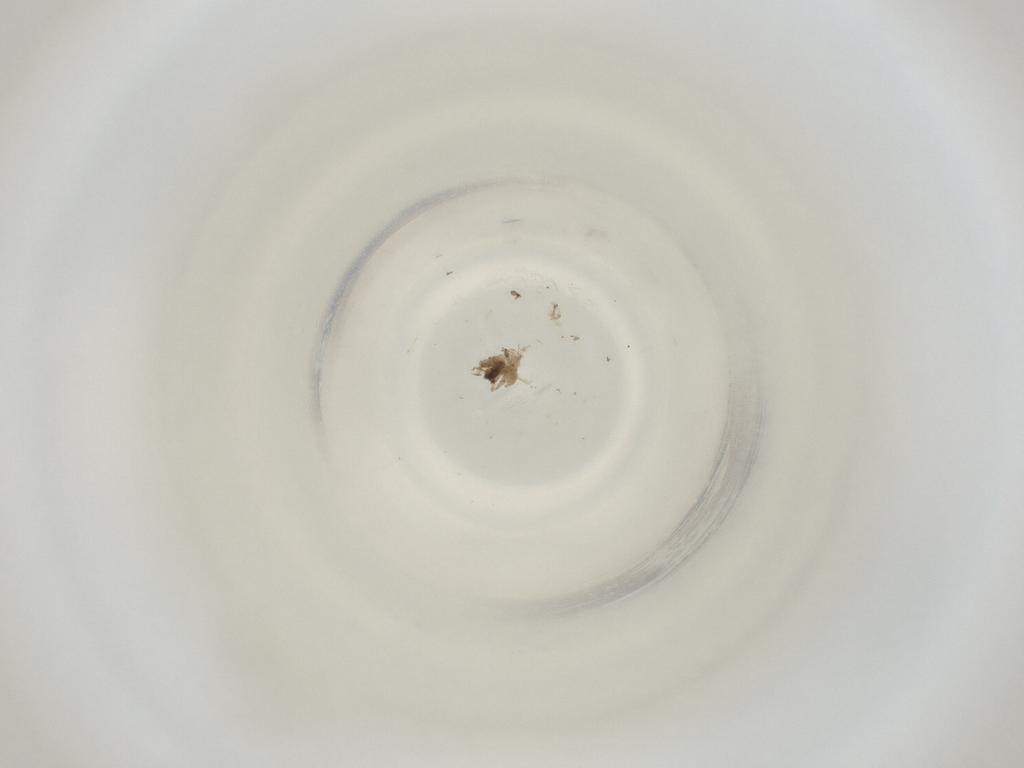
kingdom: Animalia
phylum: Arthropoda
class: Insecta
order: Diptera
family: Cecidomyiidae
